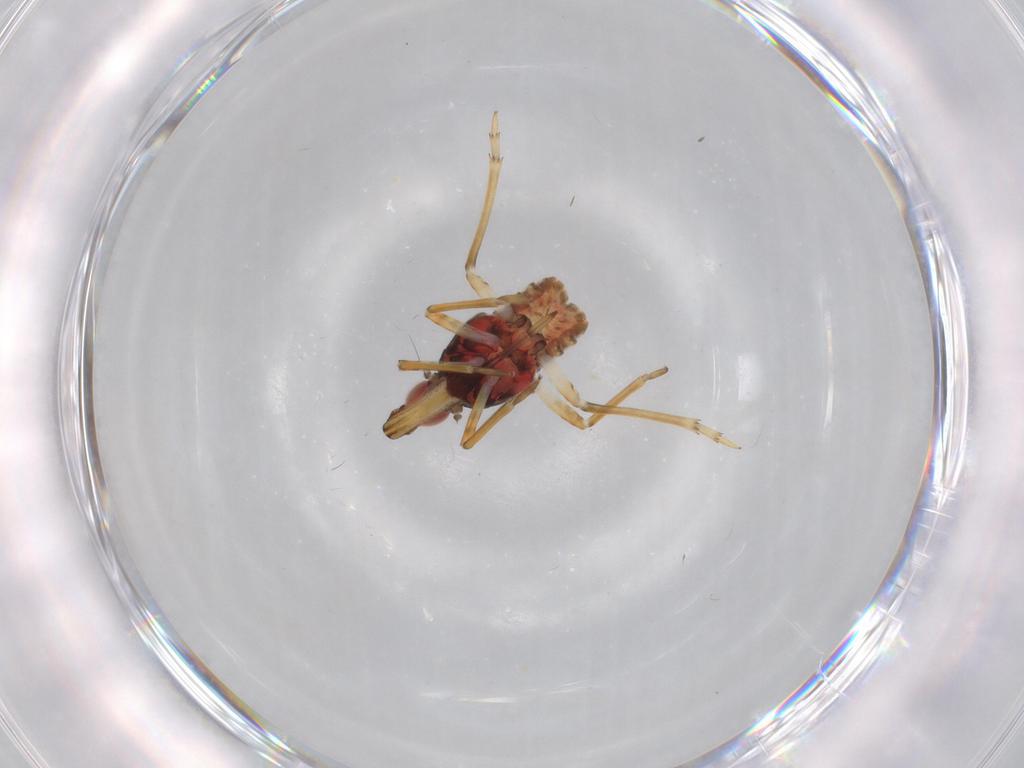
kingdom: Animalia
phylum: Arthropoda
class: Insecta
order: Hemiptera
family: Fulgoroidea_incertae_sedis
